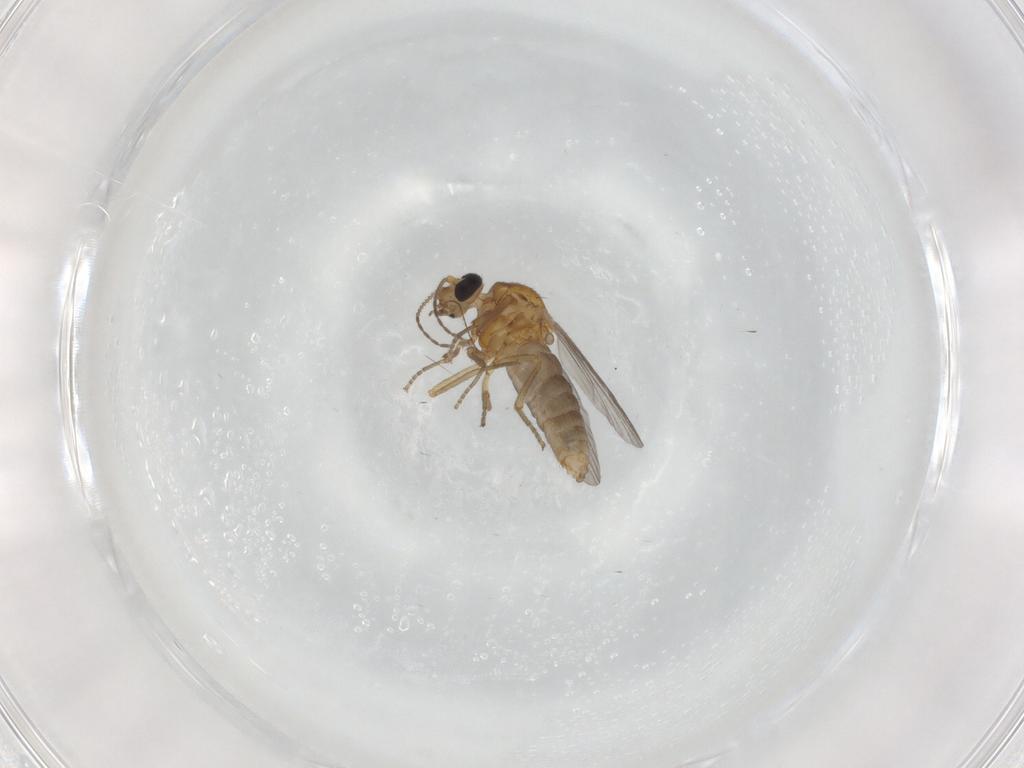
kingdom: Animalia
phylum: Arthropoda
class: Insecta
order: Diptera
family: Ceratopogonidae
